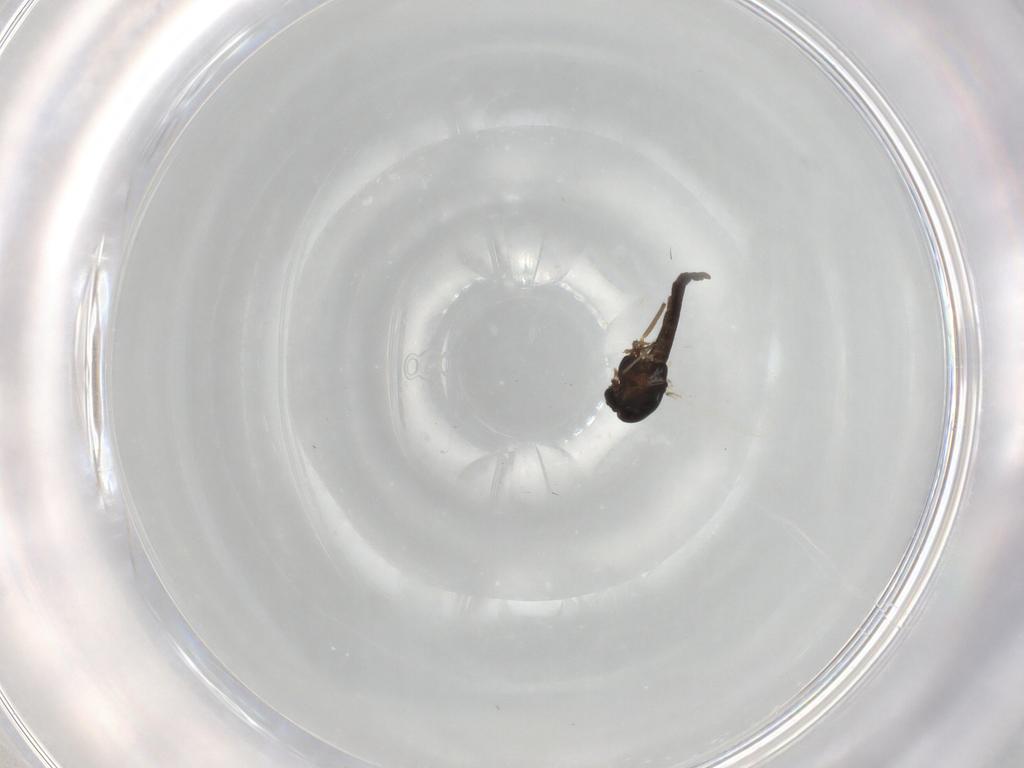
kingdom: Animalia
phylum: Arthropoda
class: Insecta
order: Diptera
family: Chironomidae
